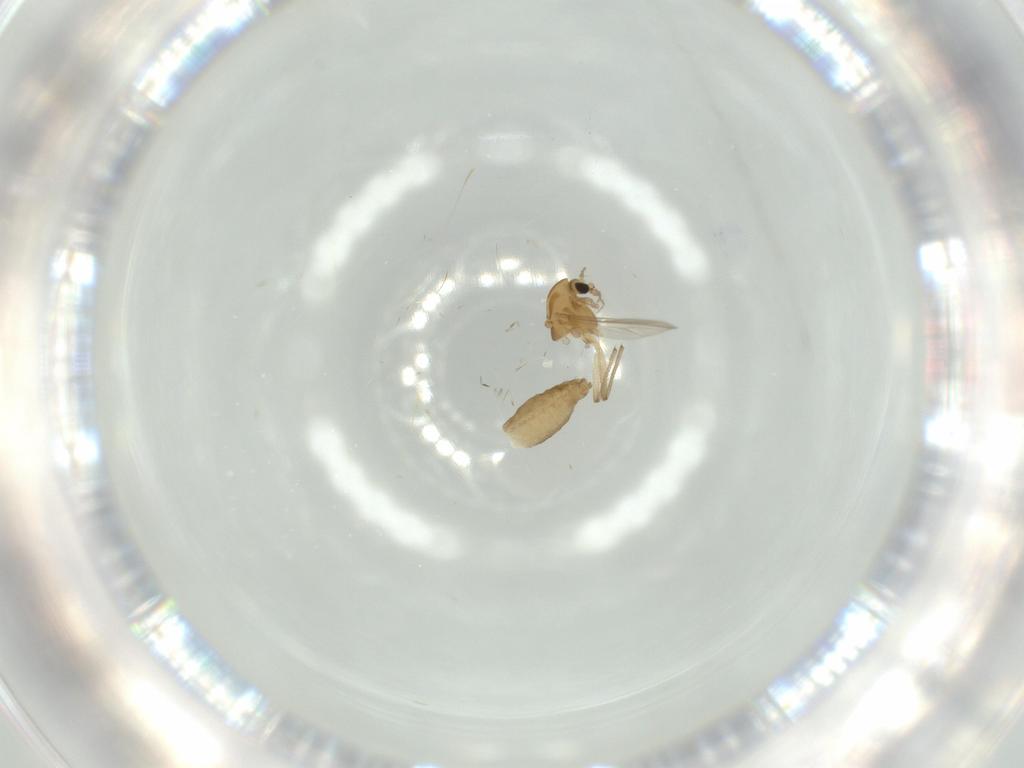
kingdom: Animalia
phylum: Arthropoda
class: Insecta
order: Diptera
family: Chironomidae
